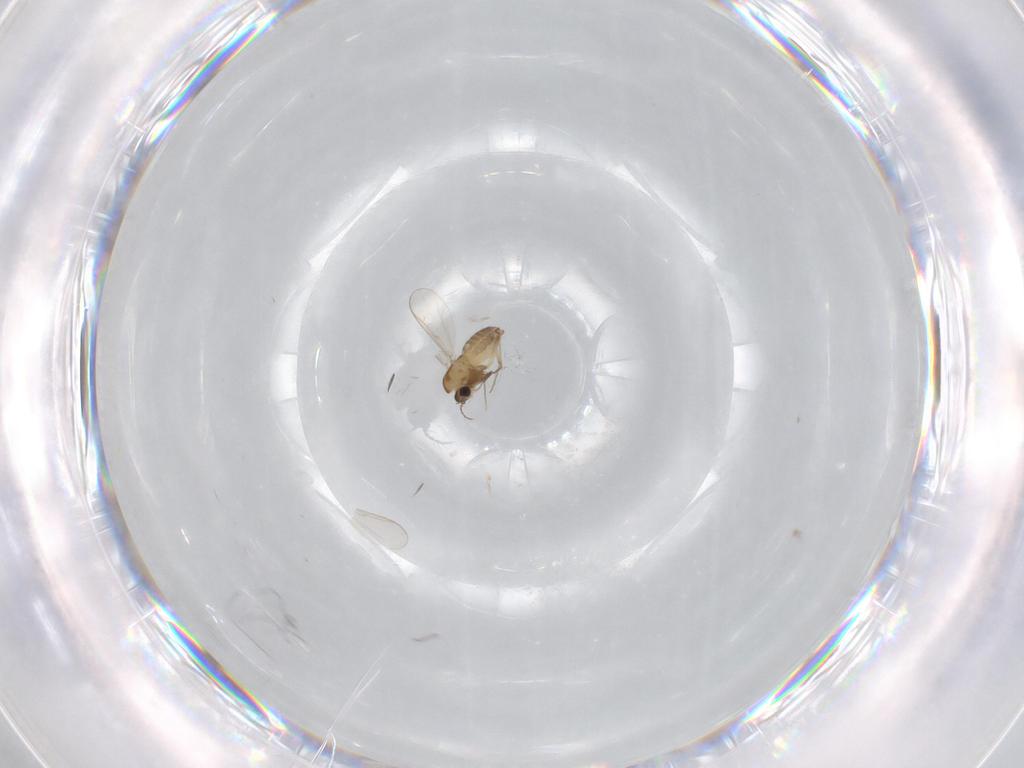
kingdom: Animalia
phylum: Arthropoda
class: Insecta
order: Diptera
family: Chironomidae
